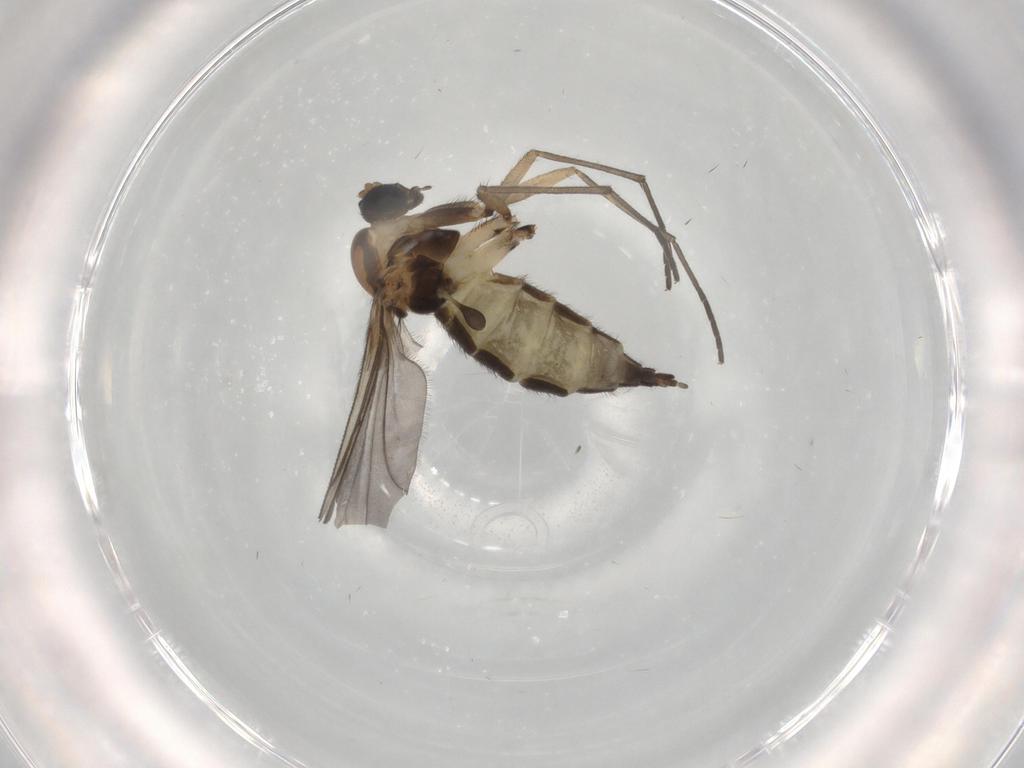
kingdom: Animalia
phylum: Arthropoda
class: Insecta
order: Diptera
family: Sciaridae
